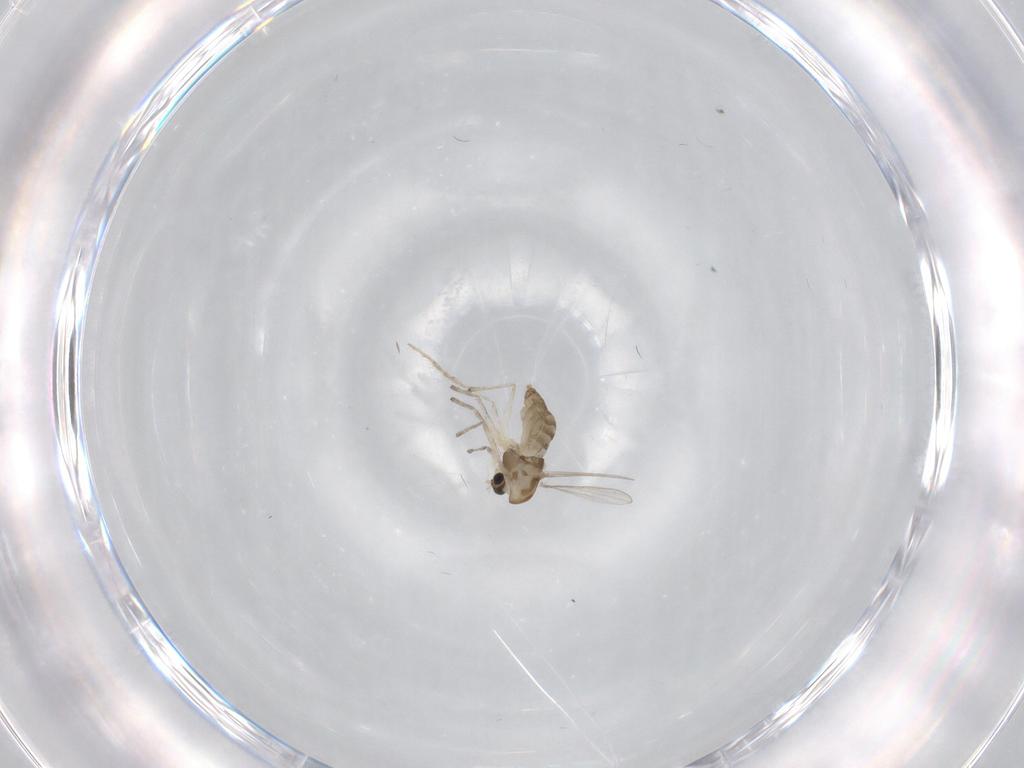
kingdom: Animalia
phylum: Arthropoda
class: Insecta
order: Diptera
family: Chironomidae
